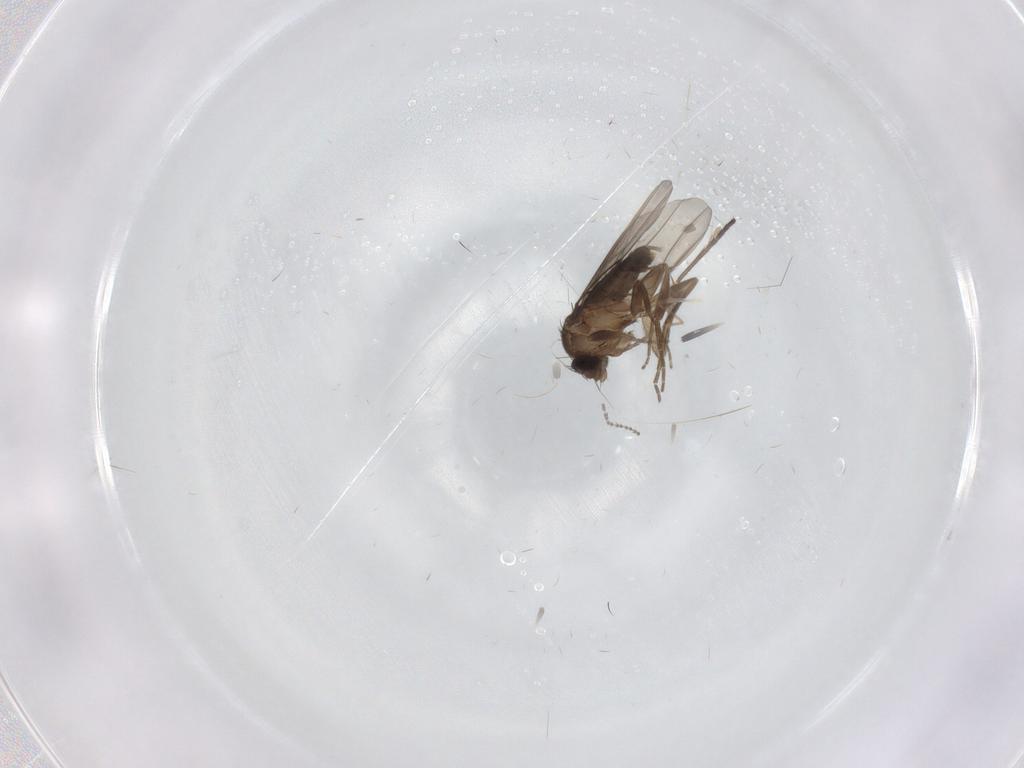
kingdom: Animalia
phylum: Arthropoda
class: Insecta
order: Diptera
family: Phoridae
